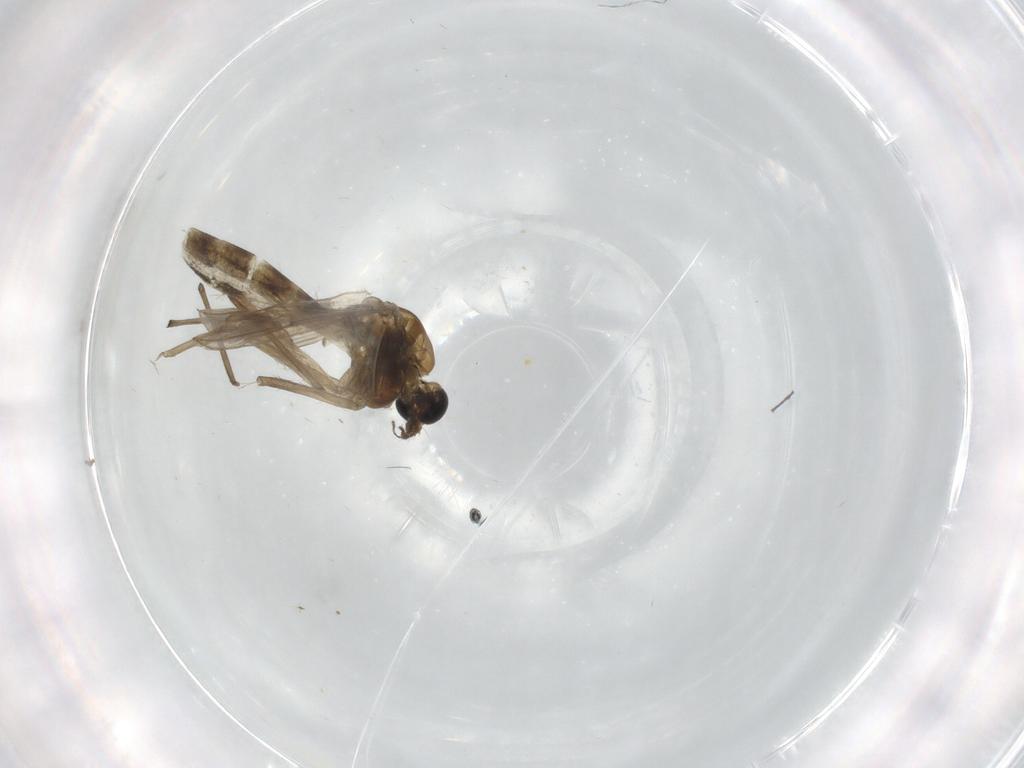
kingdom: Animalia
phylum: Arthropoda
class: Insecta
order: Diptera
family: Chironomidae
